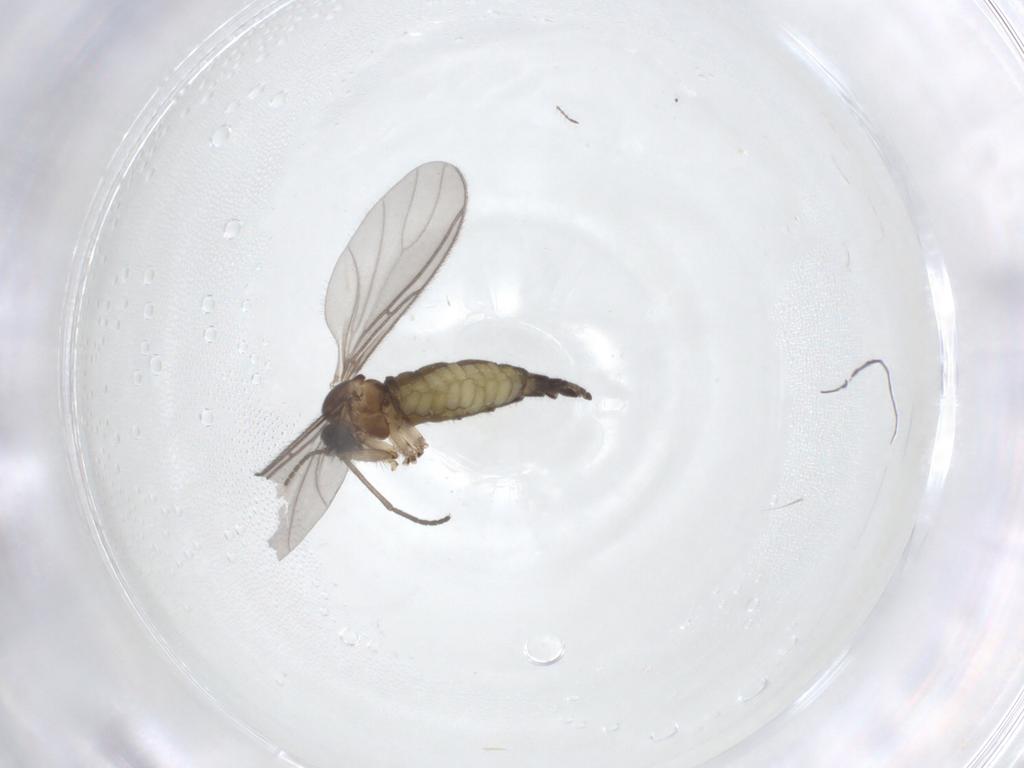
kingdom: Animalia
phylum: Arthropoda
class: Insecta
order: Diptera
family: Sciaridae
